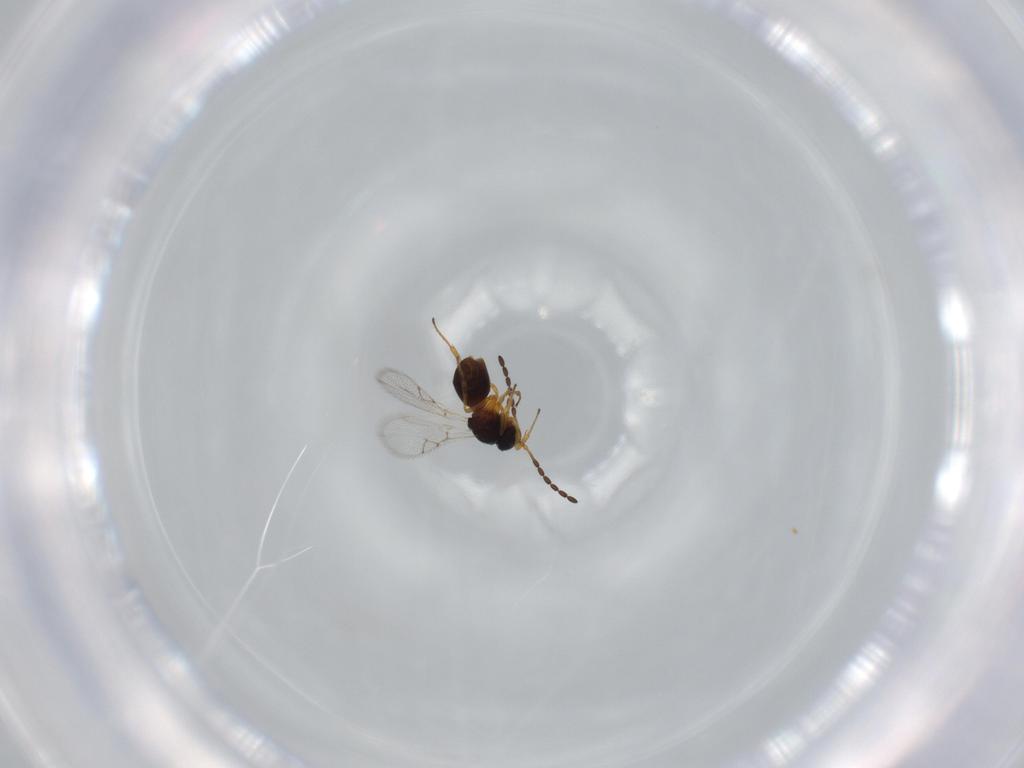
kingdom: Animalia
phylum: Arthropoda
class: Insecta
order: Hymenoptera
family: Figitidae
